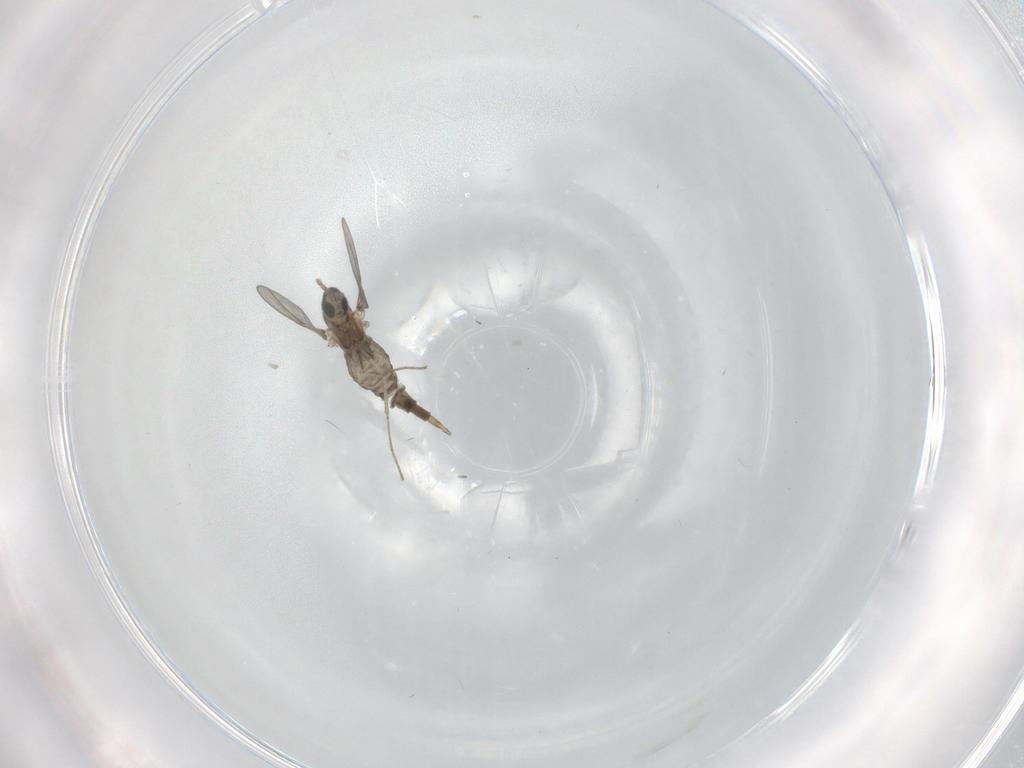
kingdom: Animalia
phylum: Arthropoda
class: Insecta
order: Diptera
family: Cecidomyiidae
